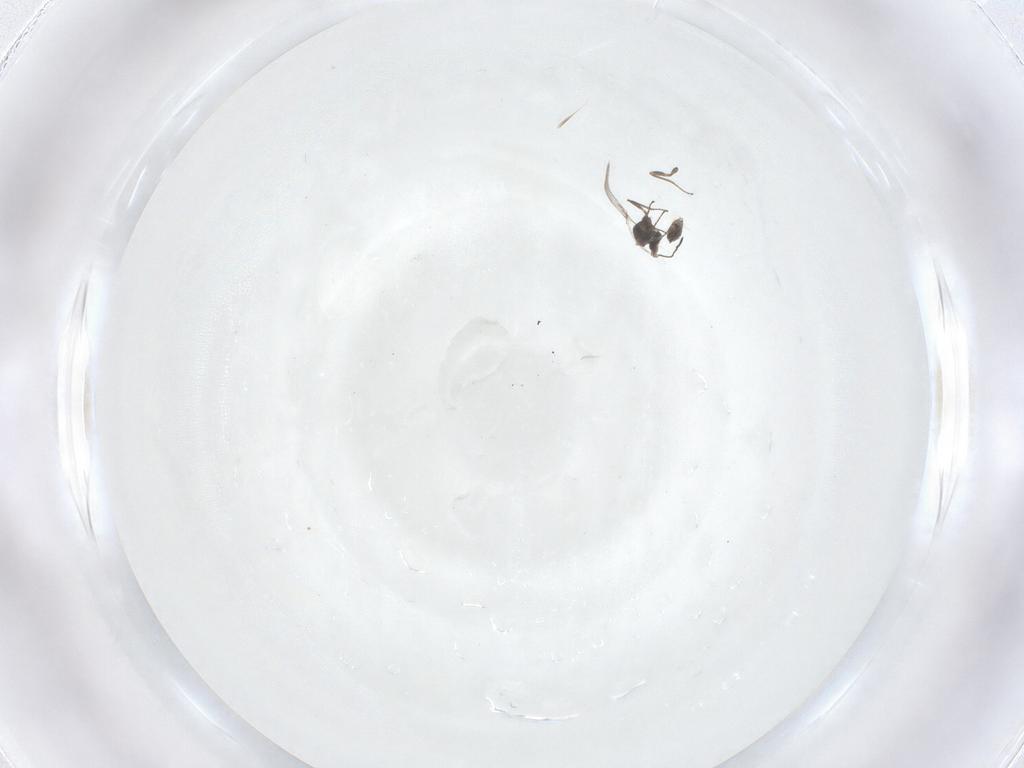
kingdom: Animalia
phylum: Arthropoda
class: Insecta
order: Hymenoptera
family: Mymaridae
